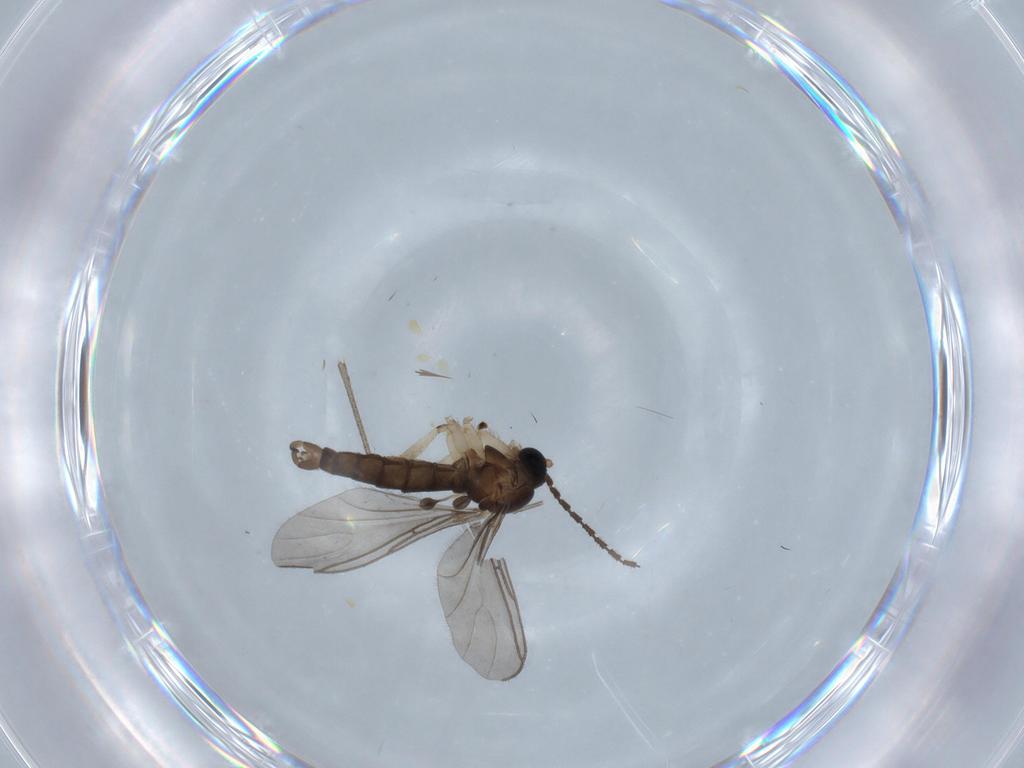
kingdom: Animalia
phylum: Arthropoda
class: Insecta
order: Diptera
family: Sciaridae
